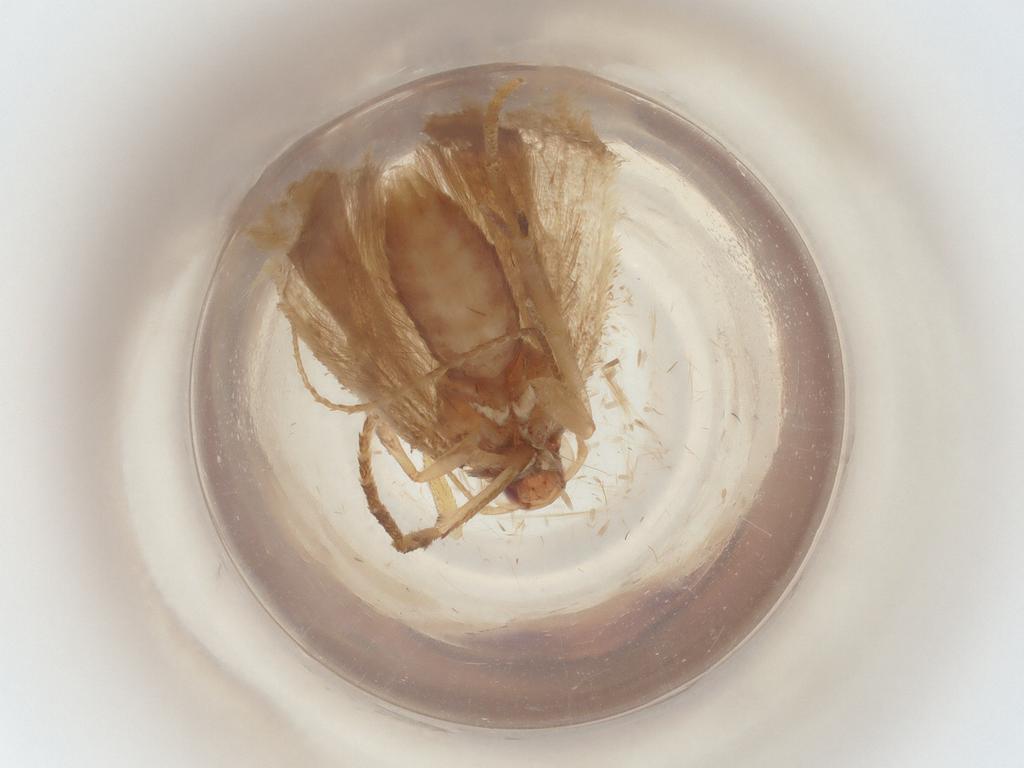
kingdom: Animalia
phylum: Arthropoda
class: Insecta
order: Lepidoptera
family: Gelechiidae
